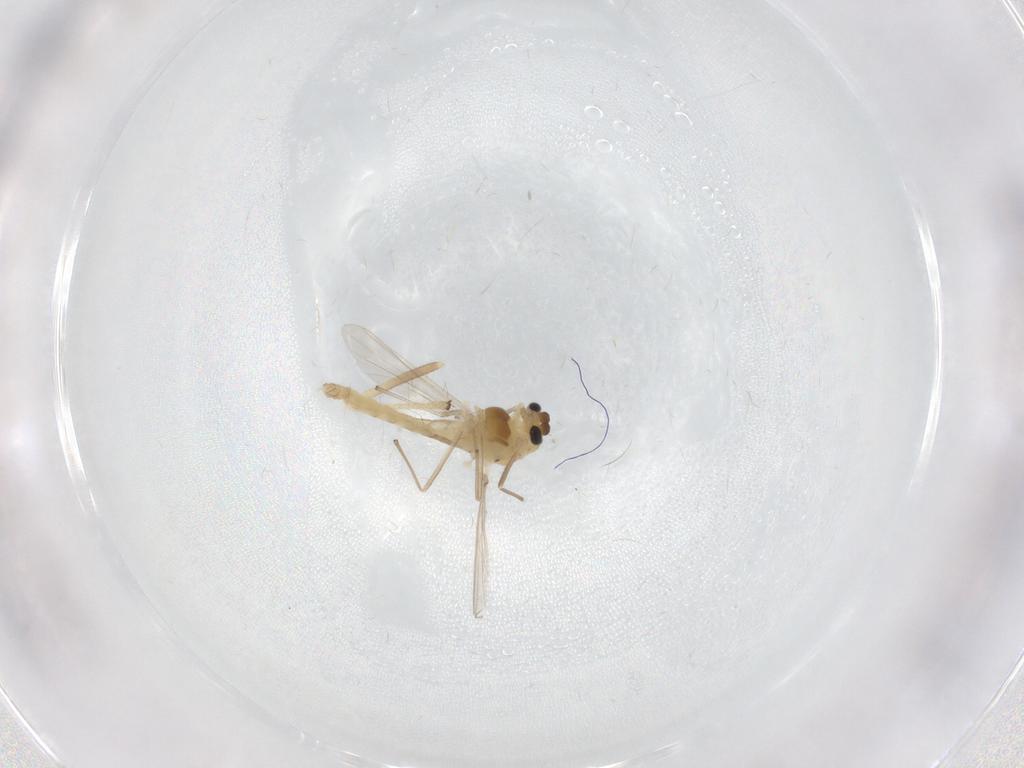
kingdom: Animalia
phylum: Arthropoda
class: Insecta
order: Diptera
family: Chironomidae
